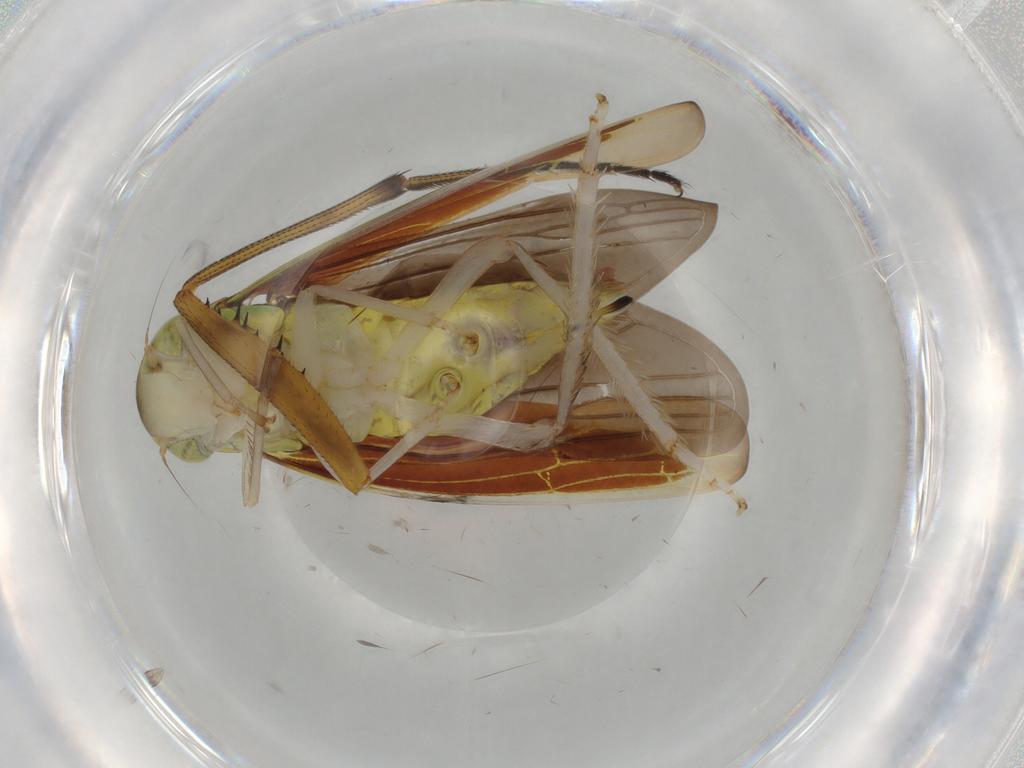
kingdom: Animalia
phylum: Arthropoda
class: Insecta
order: Hemiptera
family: Cicadellidae
